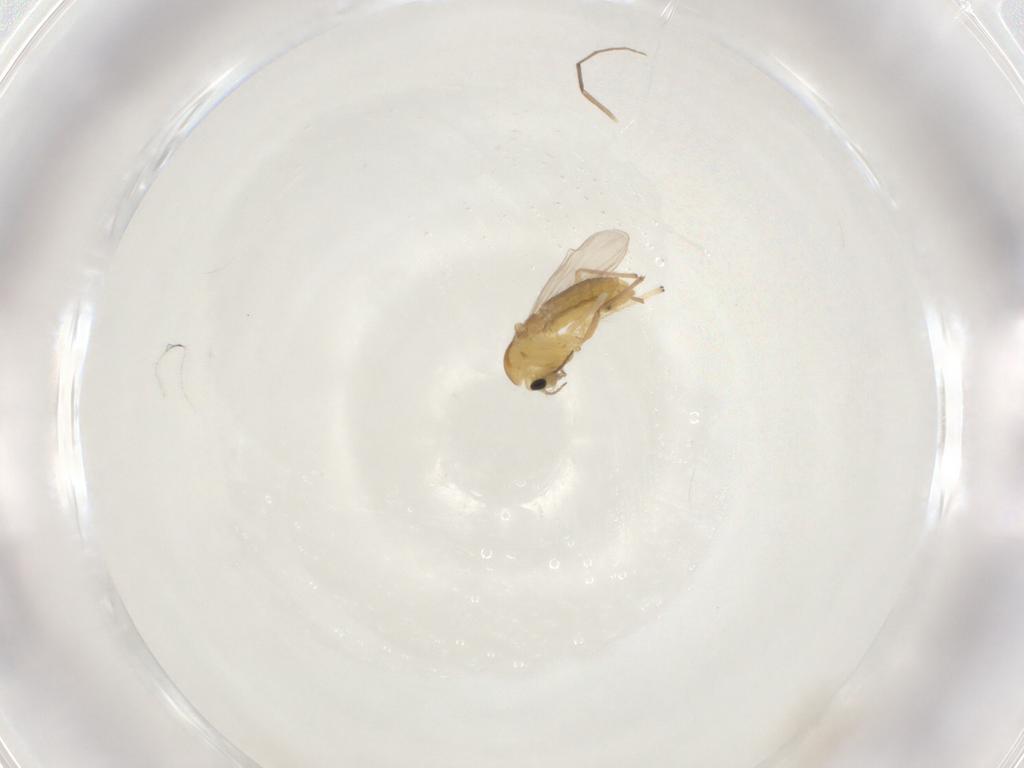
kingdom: Animalia
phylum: Arthropoda
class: Insecta
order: Diptera
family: Chironomidae
